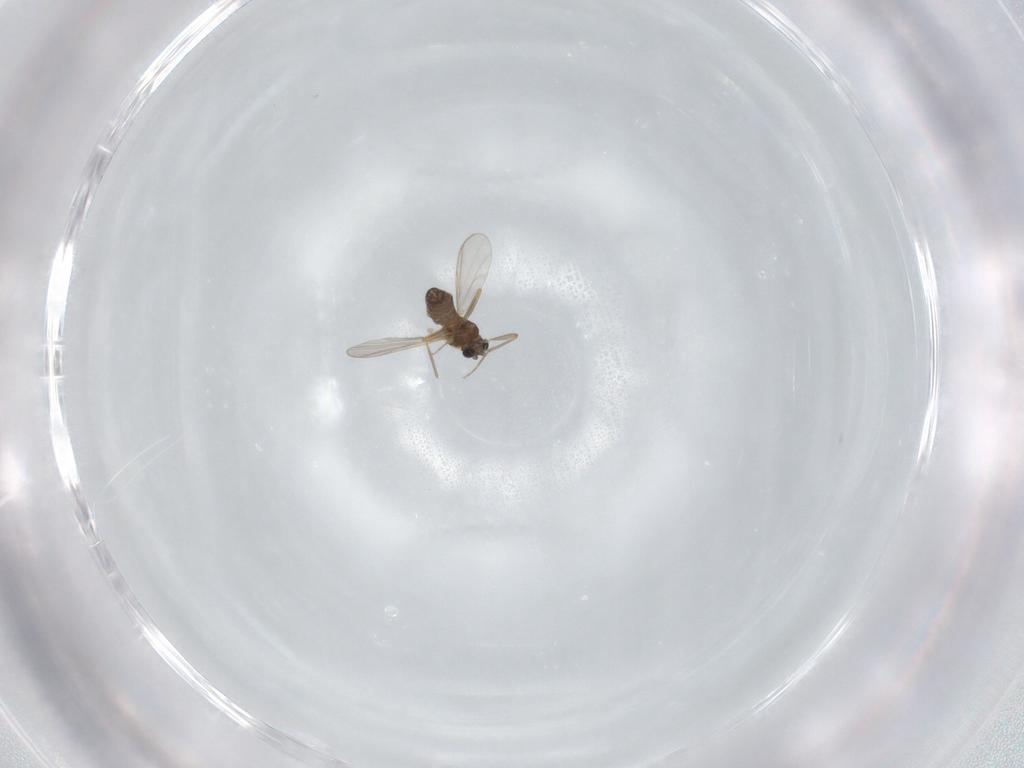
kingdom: Animalia
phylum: Arthropoda
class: Insecta
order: Diptera
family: Chironomidae
